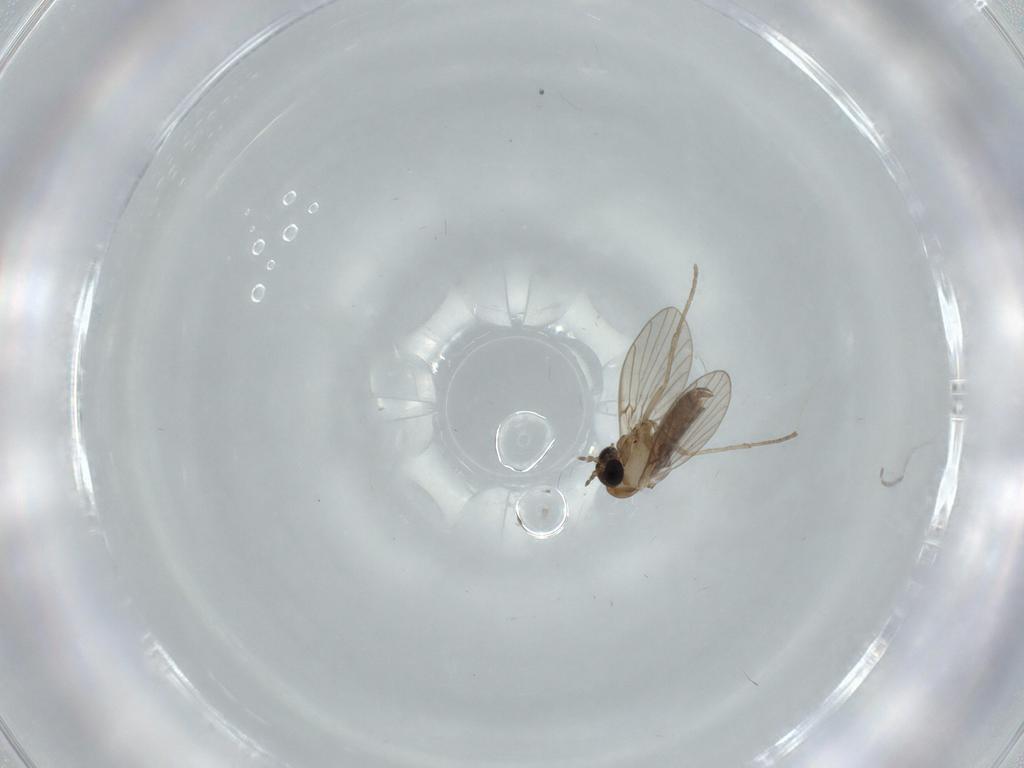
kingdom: Animalia
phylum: Arthropoda
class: Insecta
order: Diptera
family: Psychodidae
